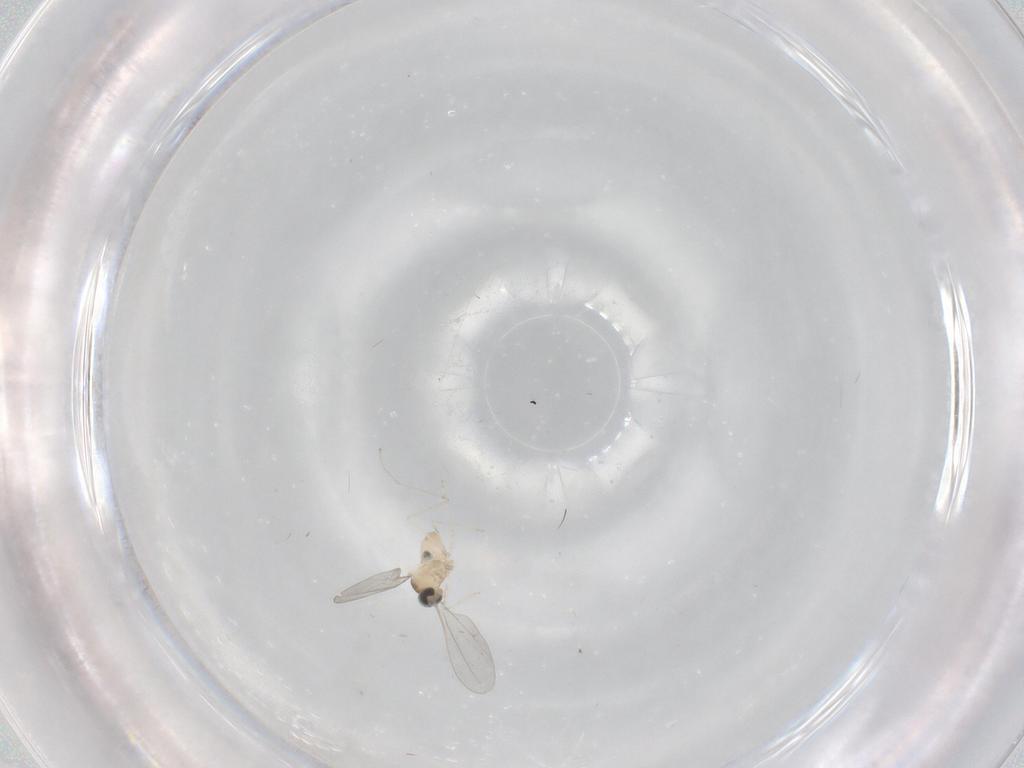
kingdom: Animalia
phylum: Arthropoda
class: Insecta
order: Diptera
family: Cecidomyiidae
